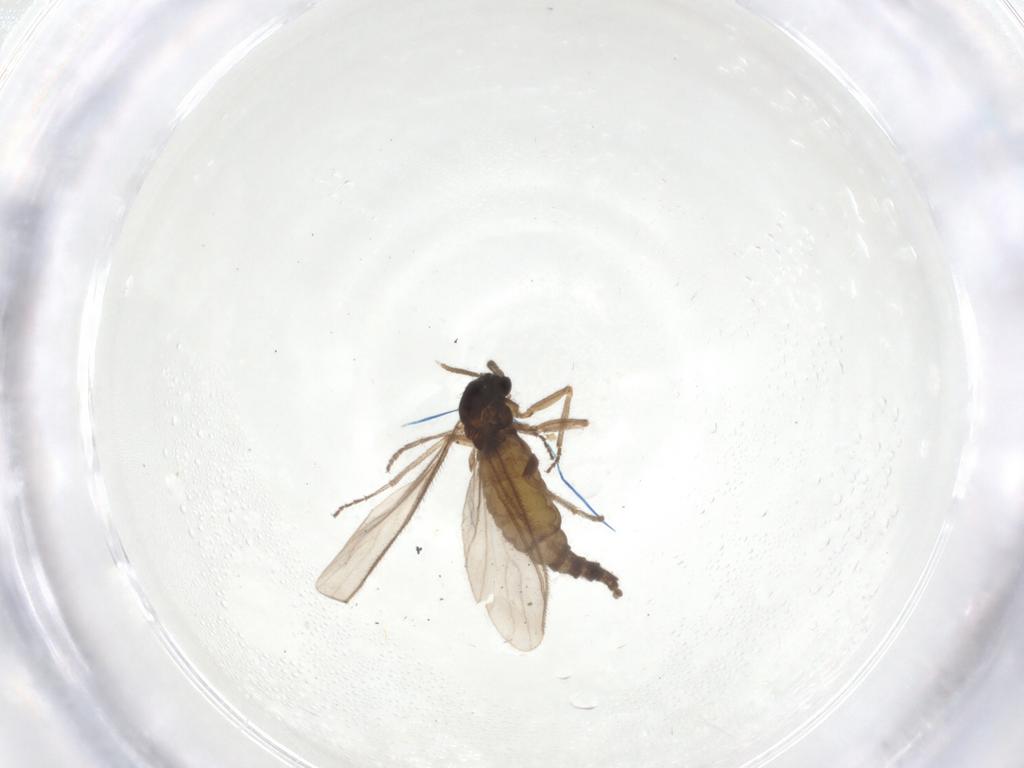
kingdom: Animalia
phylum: Arthropoda
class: Insecta
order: Diptera
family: Sciaridae
